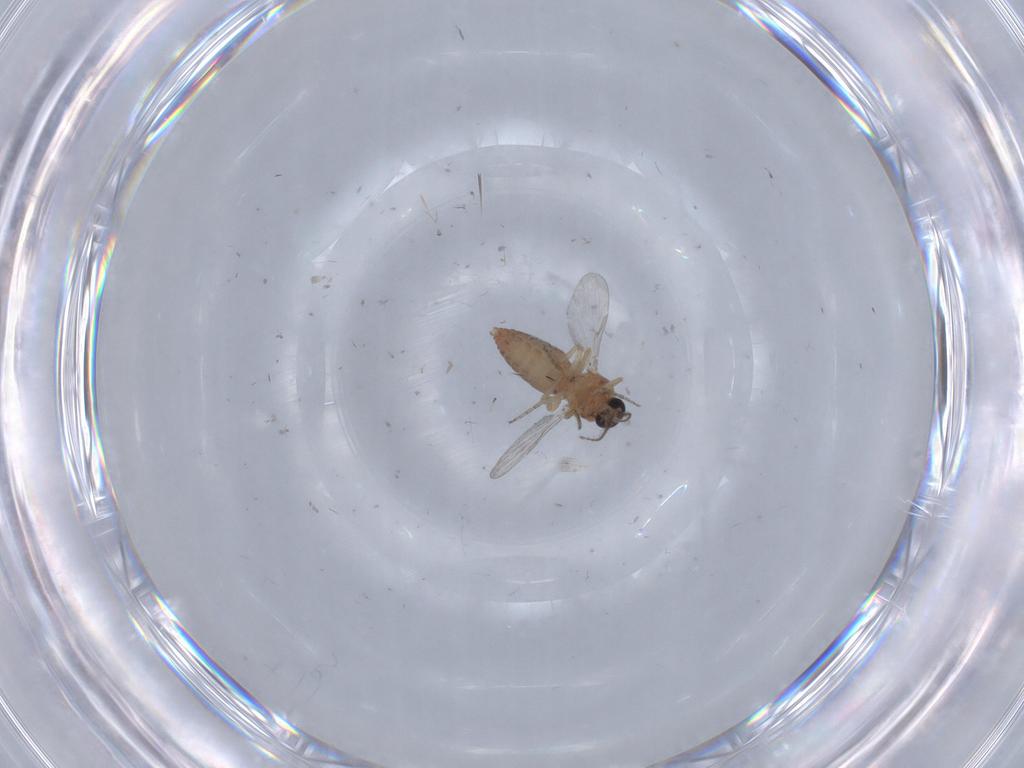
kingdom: Animalia
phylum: Arthropoda
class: Insecta
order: Diptera
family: Ceratopogonidae
